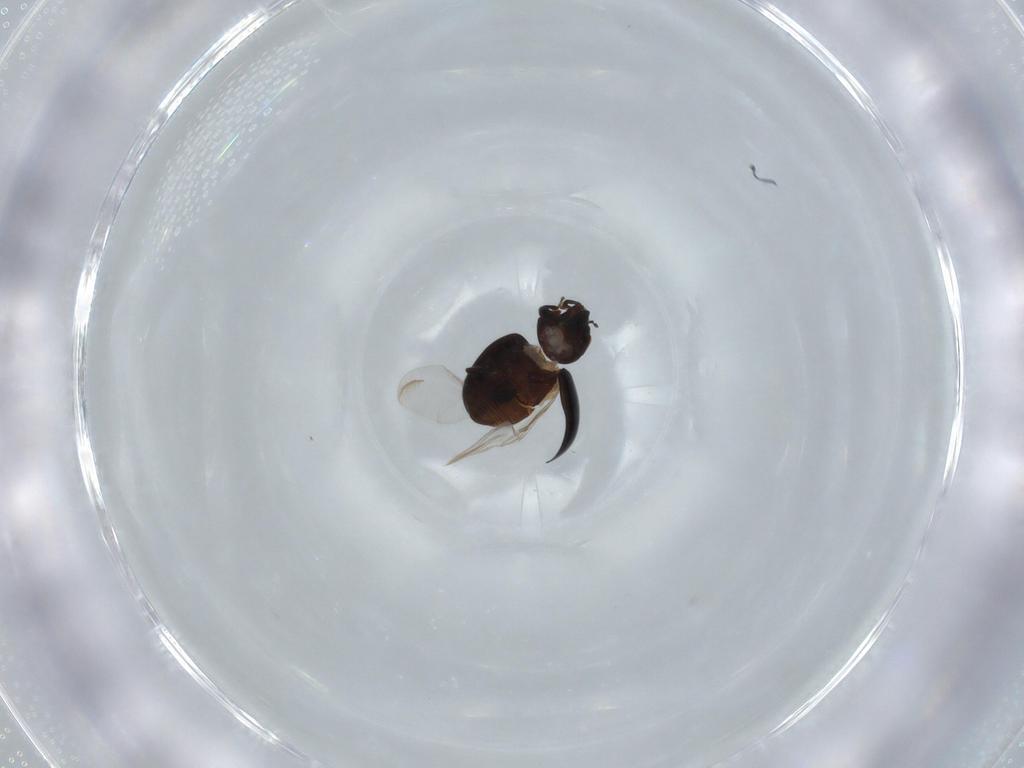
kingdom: Animalia
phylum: Arthropoda
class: Insecta
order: Coleoptera
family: Coccinellidae
